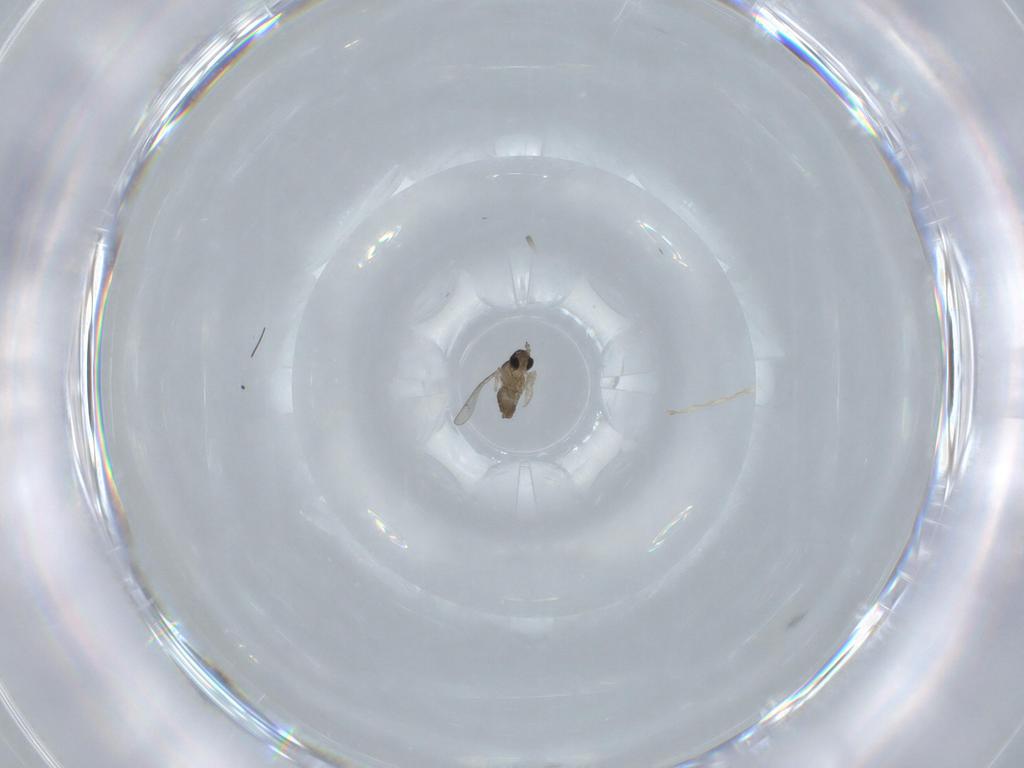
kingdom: Animalia
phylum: Arthropoda
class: Insecta
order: Diptera
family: Cecidomyiidae
